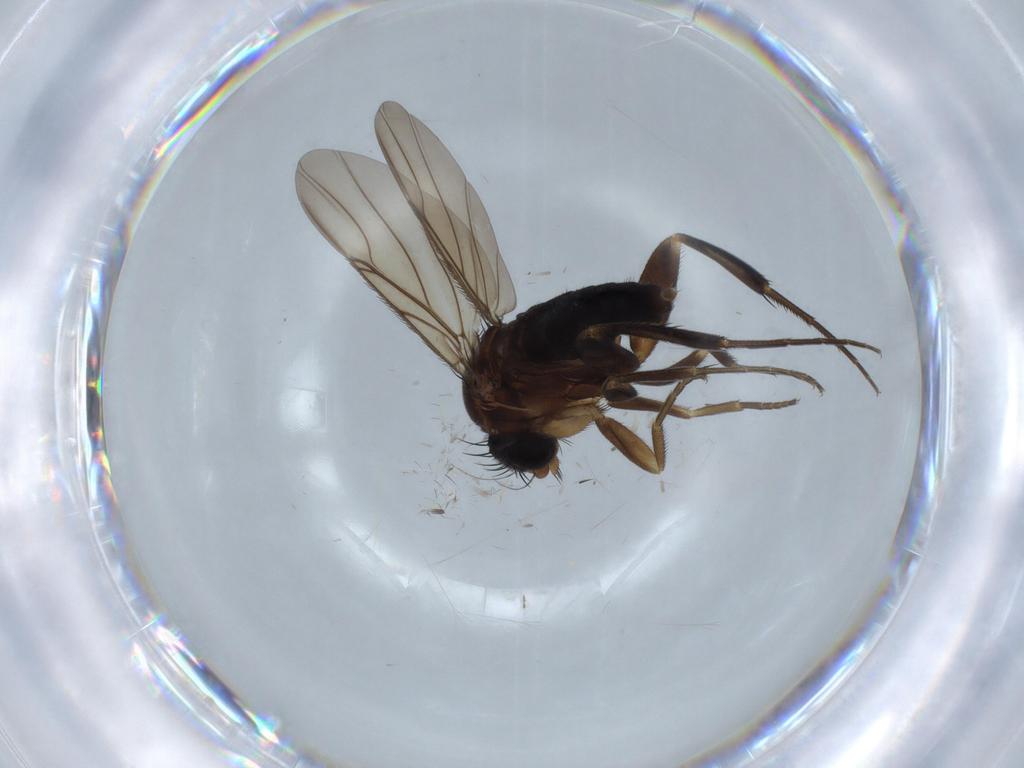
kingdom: Animalia
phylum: Arthropoda
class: Insecta
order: Diptera
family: Phoridae
